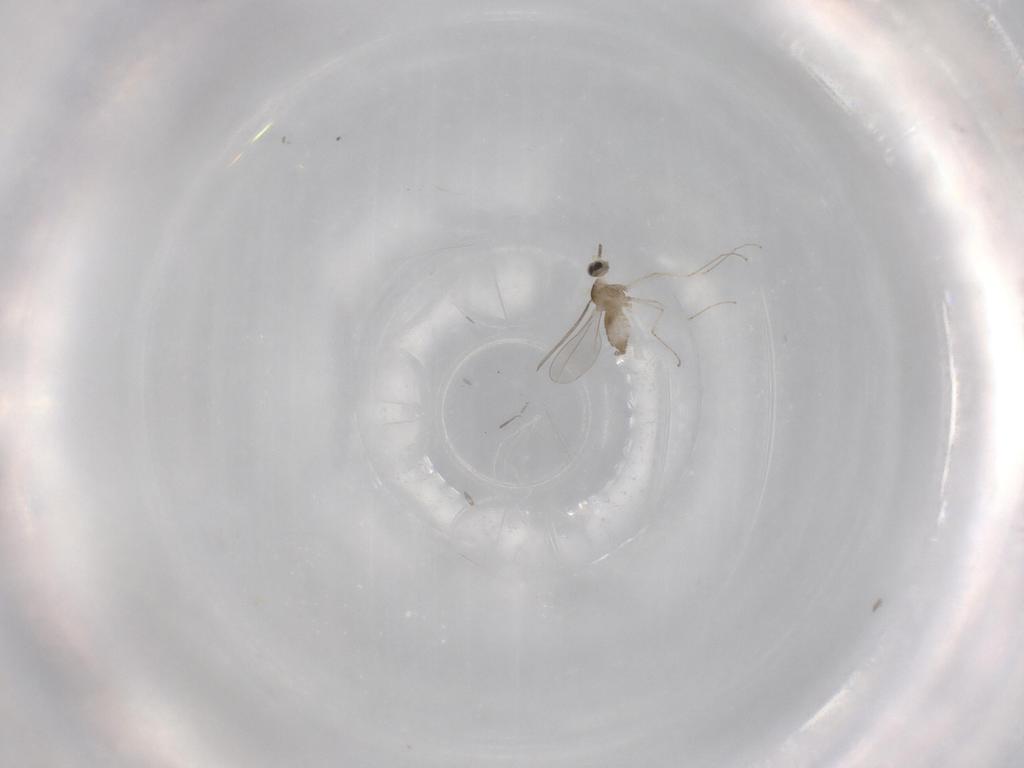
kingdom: Animalia
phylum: Arthropoda
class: Insecta
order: Diptera
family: Cecidomyiidae
